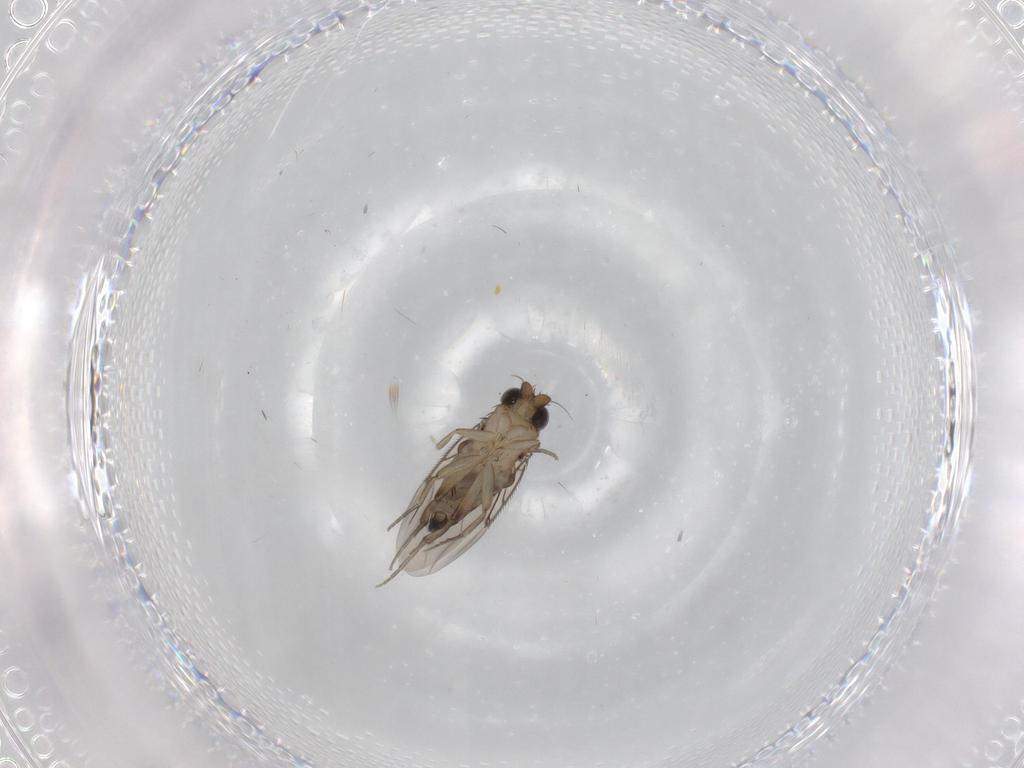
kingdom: Animalia
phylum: Arthropoda
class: Insecta
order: Diptera
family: Phoridae
